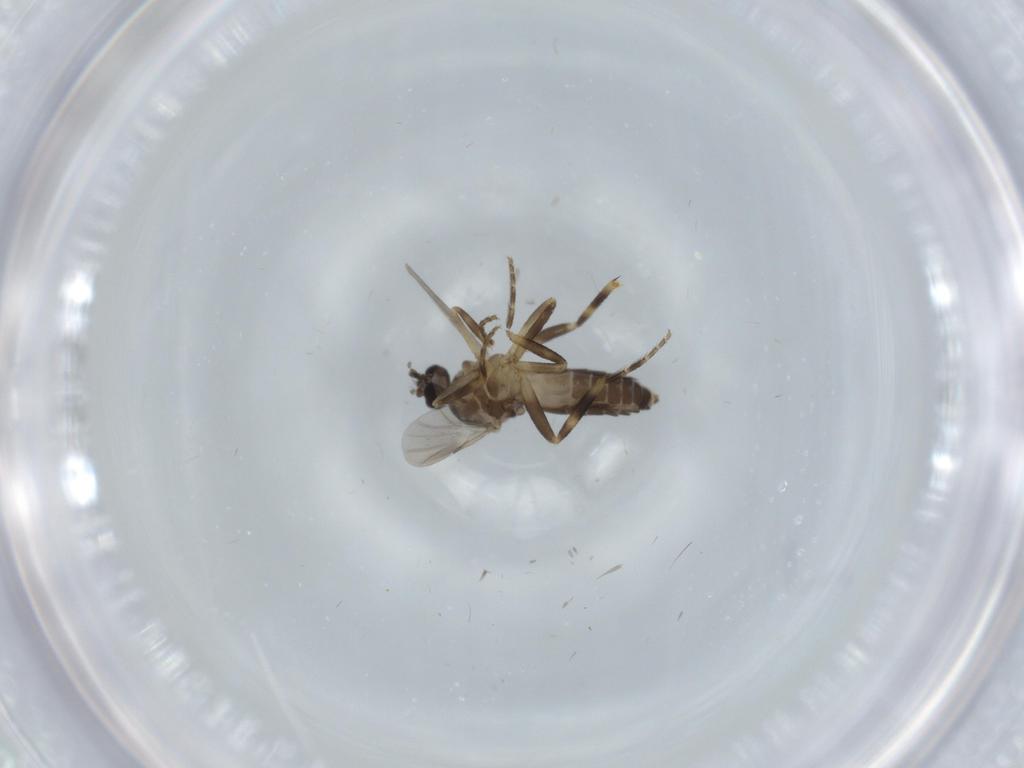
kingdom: Animalia
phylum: Arthropoda
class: Insecta
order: Diptera
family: Ceratopogonidae
